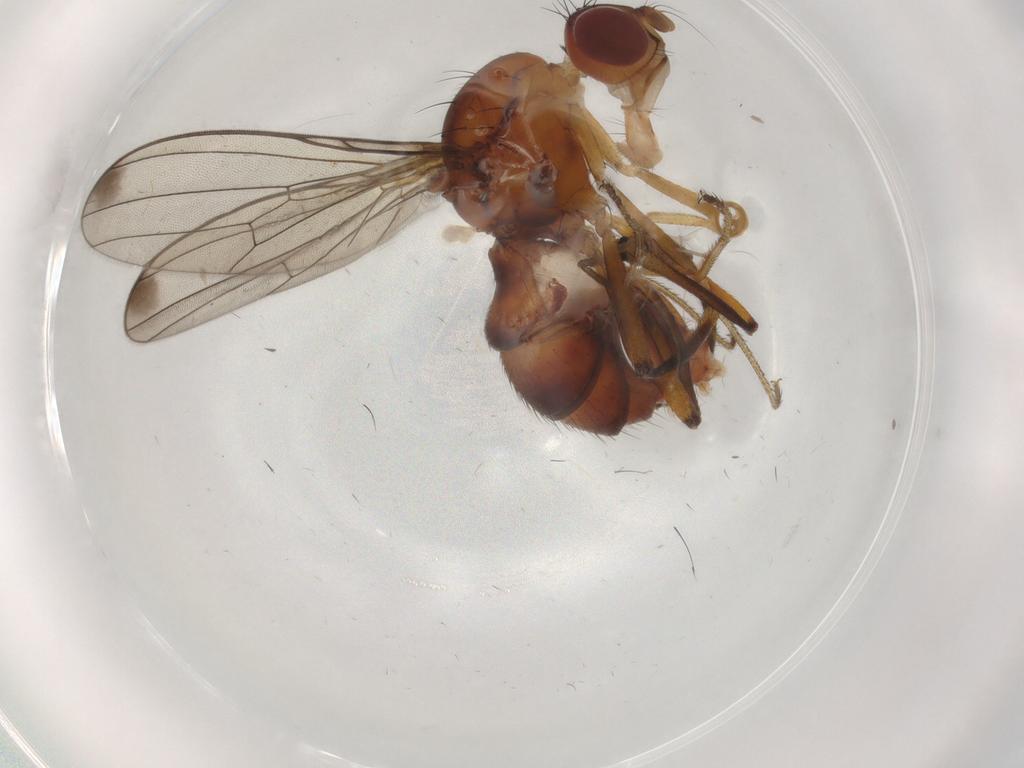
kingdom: Animalia
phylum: Arthropoda
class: Insecta
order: Diptera
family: Sepsidae
